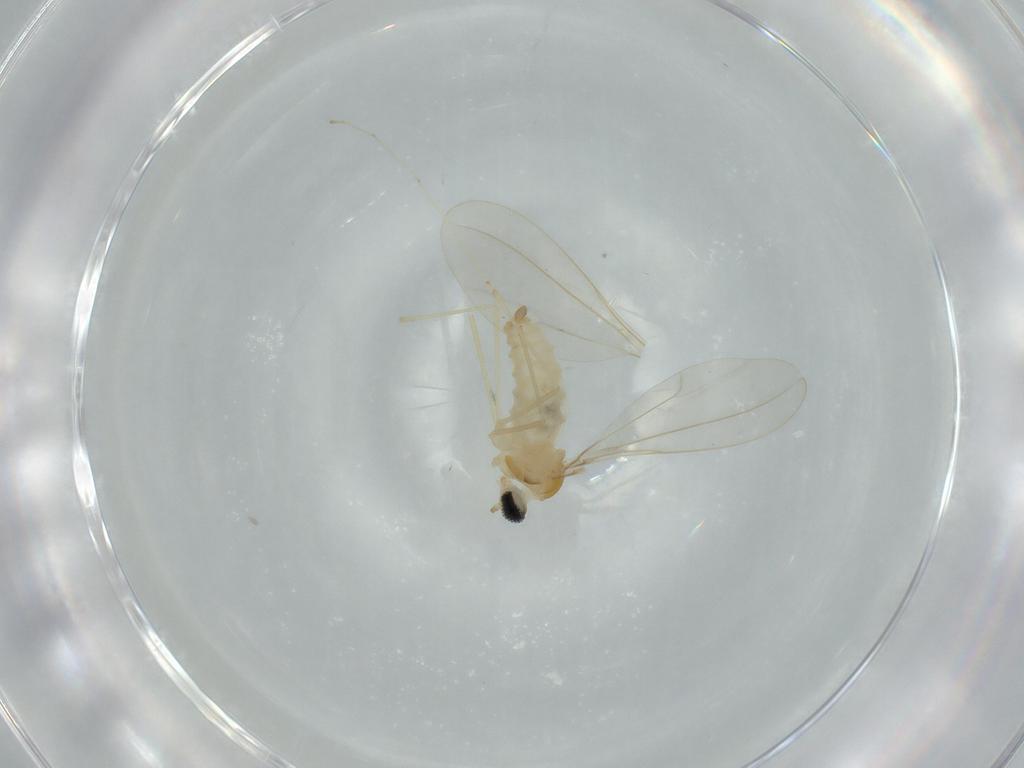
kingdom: Animalia
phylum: Arthropoda
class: Insecta
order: Diptera
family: Cecidomyiidae
